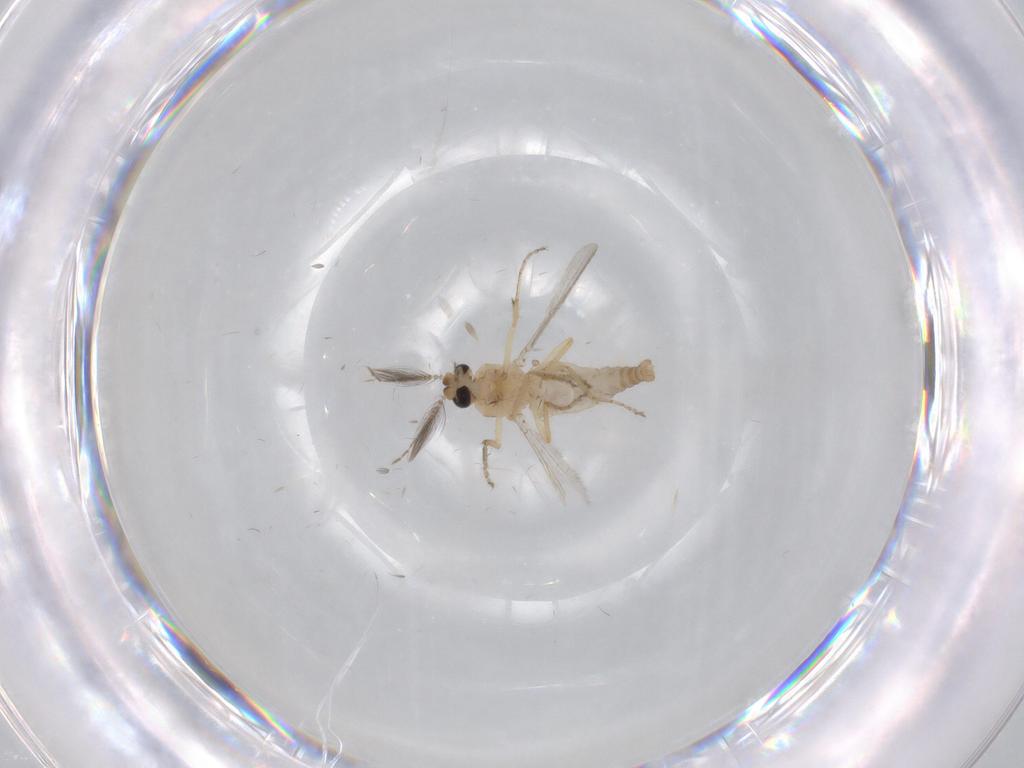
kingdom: Animalia
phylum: Arthropoda
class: Insecta
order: Diptera
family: Ceratopogonidae
